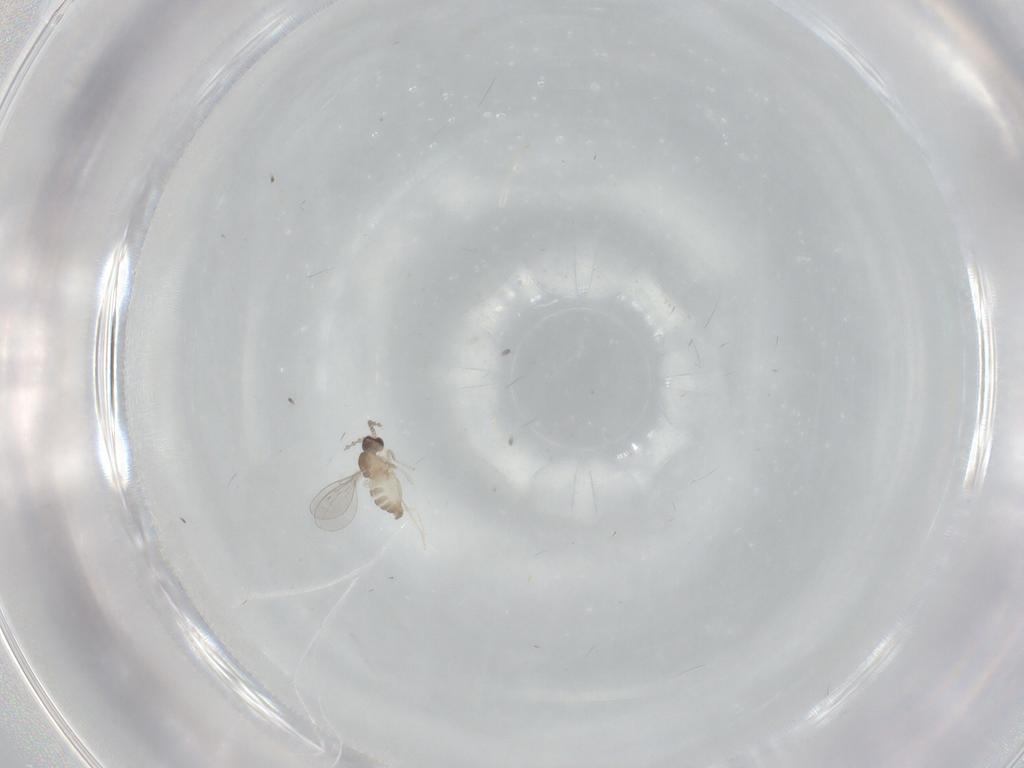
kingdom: Animalia
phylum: Arthropoda
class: Insecta
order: Diptera
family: Cecidomyiidae
